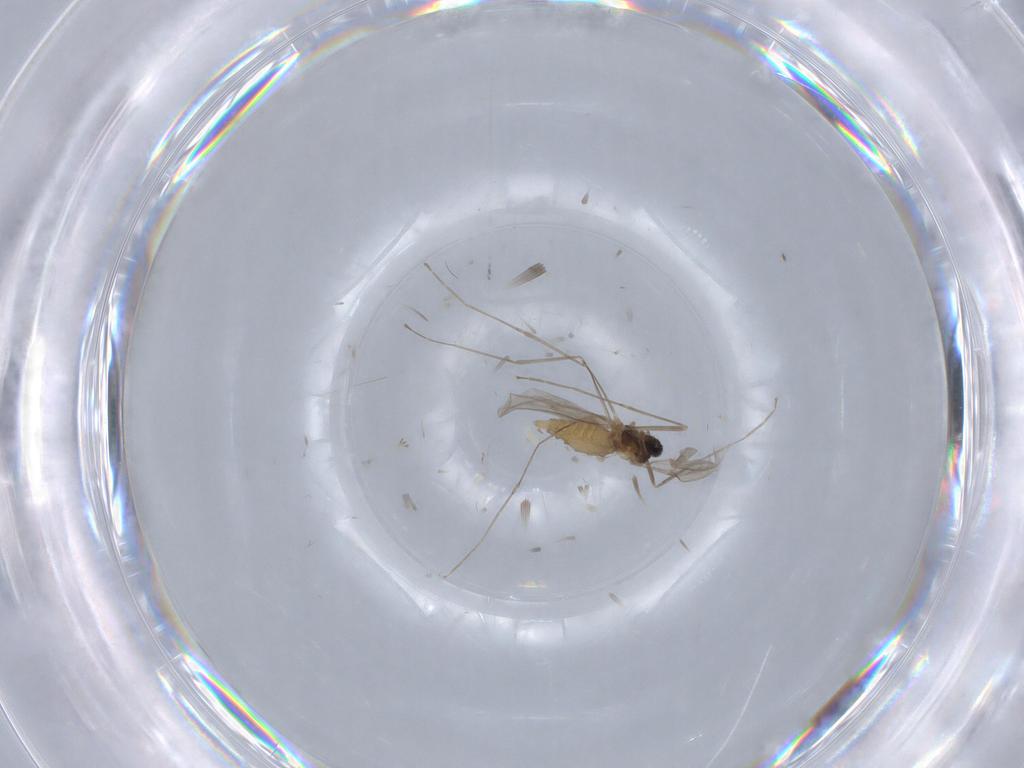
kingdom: Animalia
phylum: Arthropoda
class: Insecta
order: Diptera
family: Cecidomyiidae
